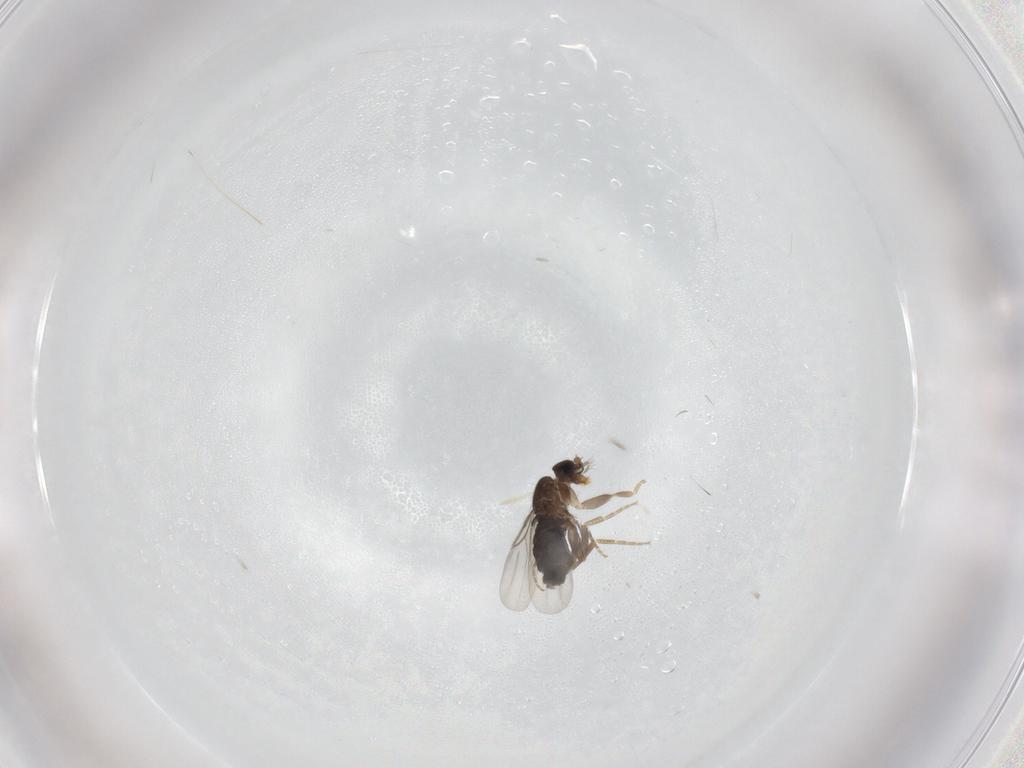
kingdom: Animalia
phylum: Arthropoda
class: Insecta
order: Diptera
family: Phoridae
